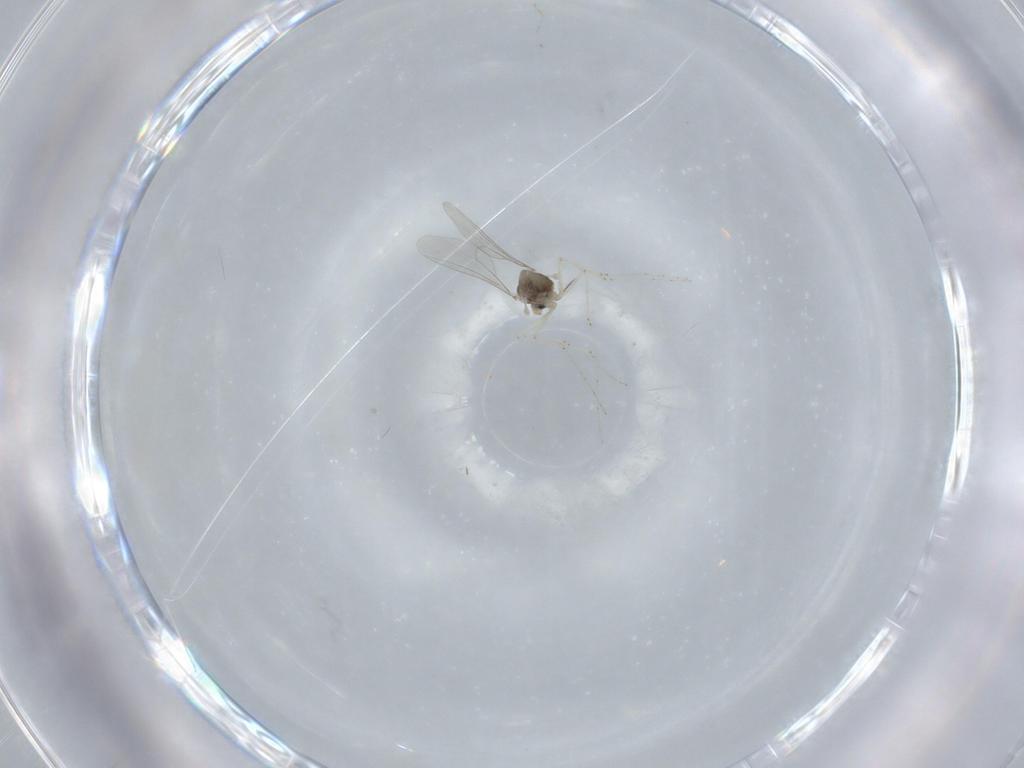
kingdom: Animalia
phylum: Arthropoda
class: Insecta
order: Diptera
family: Cecidomyiidae
